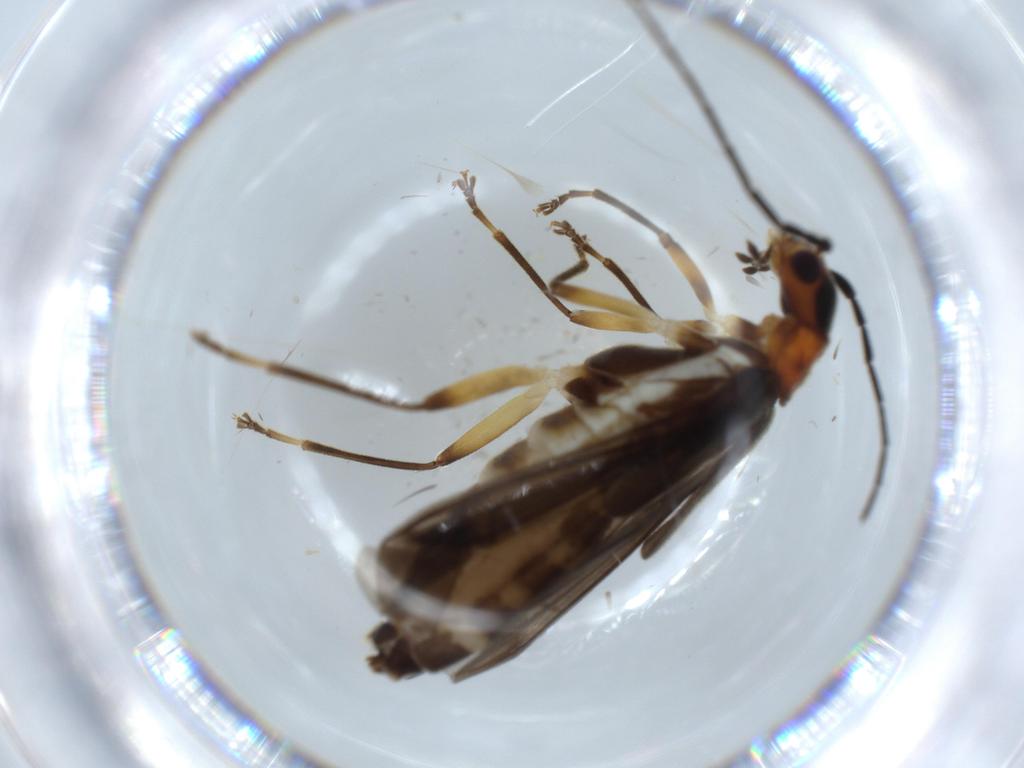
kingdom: Animalia
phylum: Arthropoda
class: Insecta
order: Coleoptera
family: Cantharidae
